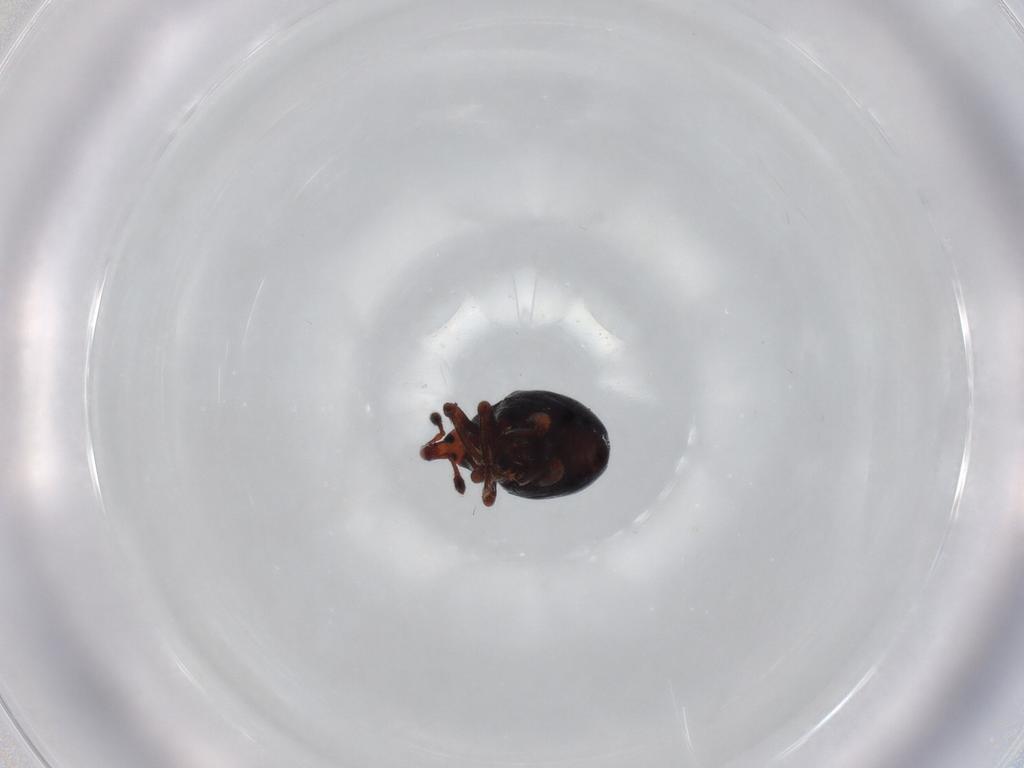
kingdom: Animalia
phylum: Arthropoda
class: Insecta
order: Coleoptera
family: Curculionidae
